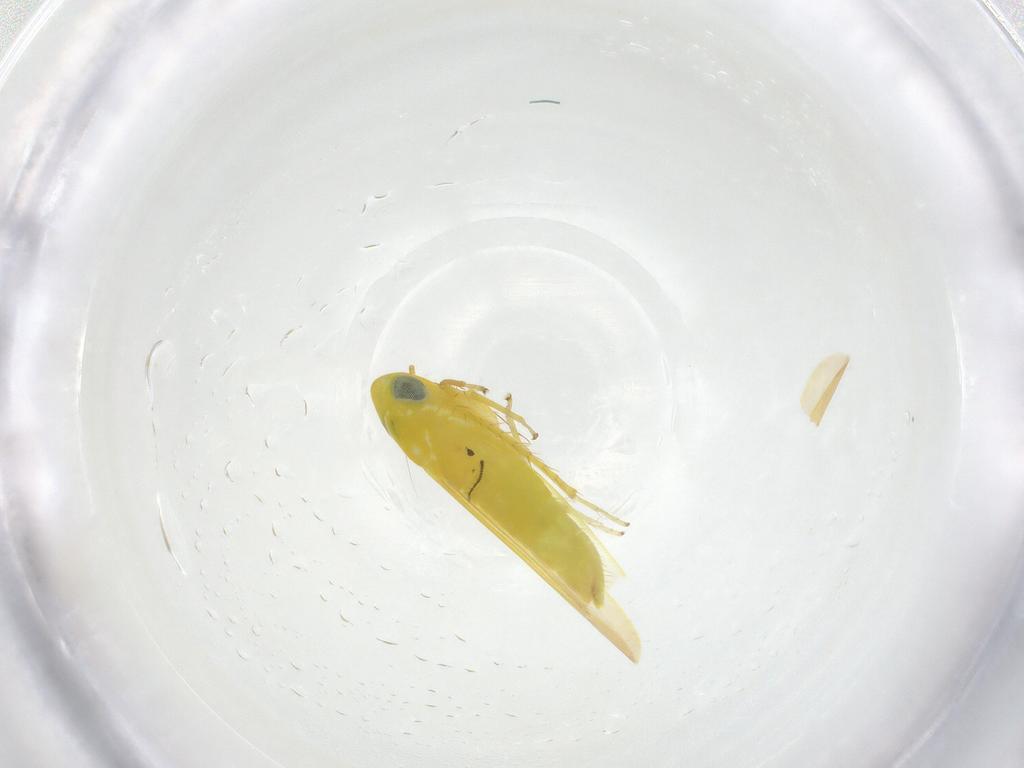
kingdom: Animalia
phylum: Arthropoda
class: Insecta
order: Hemiptera
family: Cicadellidae
